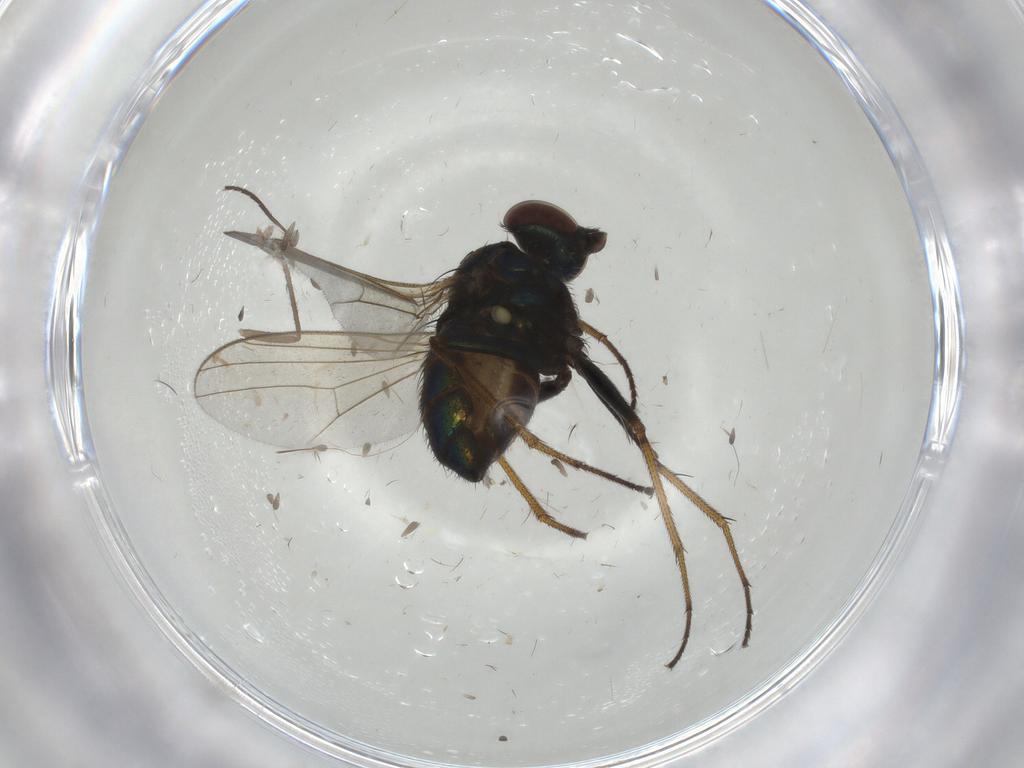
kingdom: Animalia
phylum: Arthropoda
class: Insecta
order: Diptera
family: Dolichopodidae
